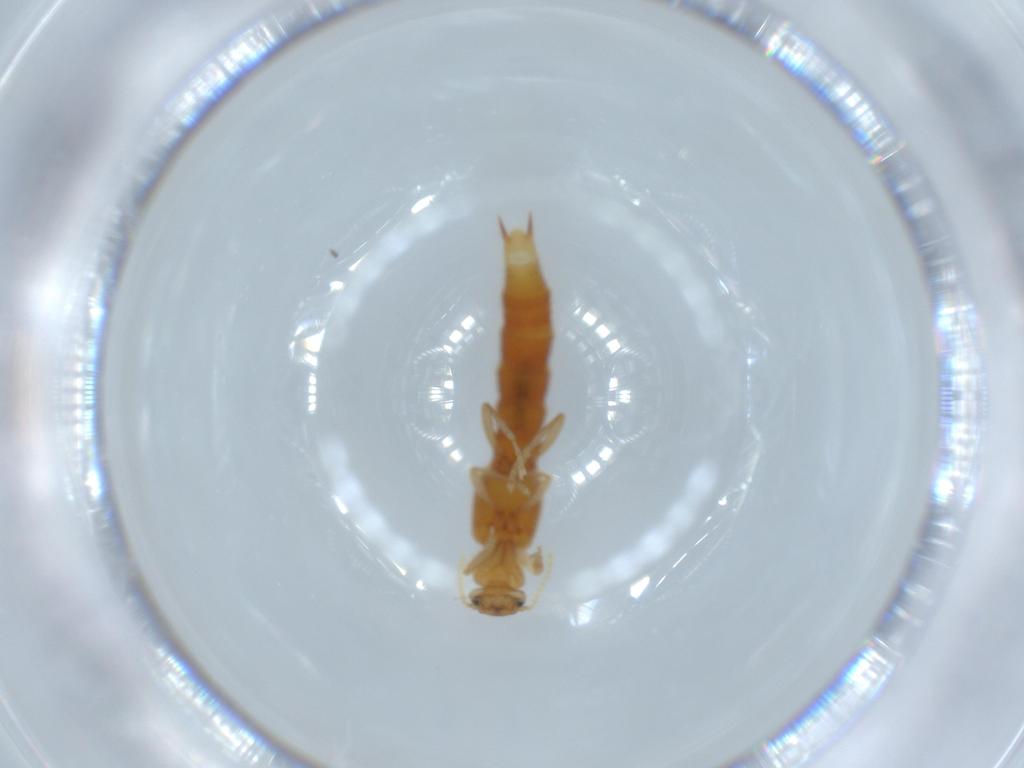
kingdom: Animalia
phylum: Arthropoda
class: Insecta
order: Coleoptera
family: Staphylinidae
